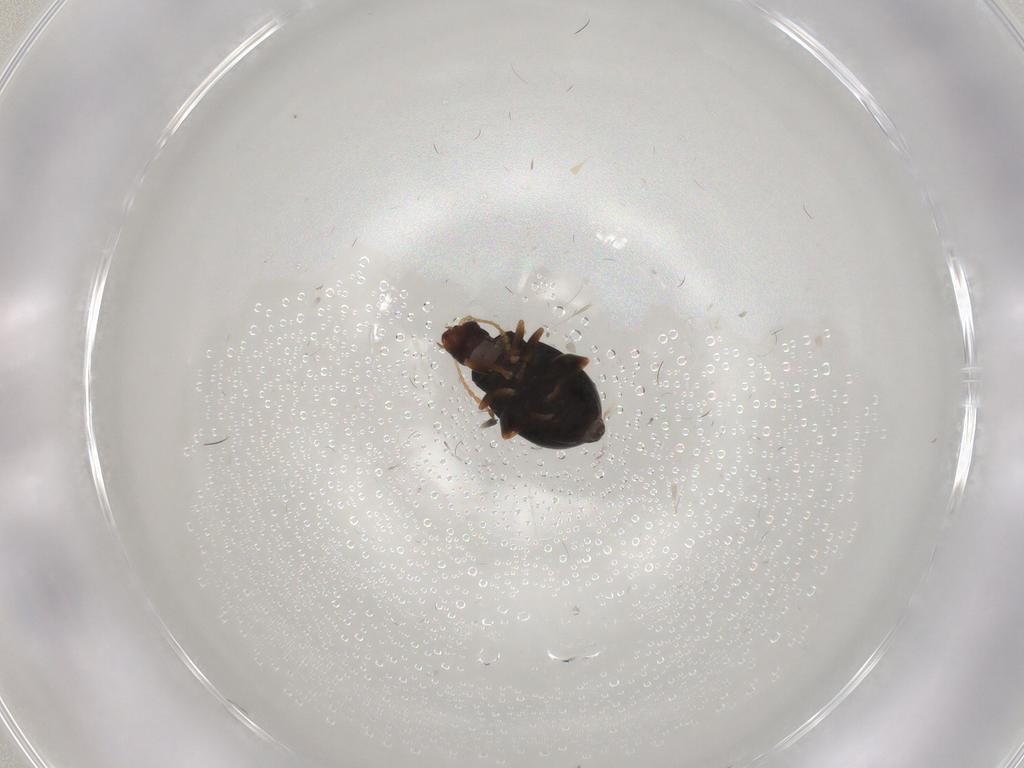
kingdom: Animalia
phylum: Arthropoda
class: Insecta
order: Coleoptera
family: Chrysomelidae
